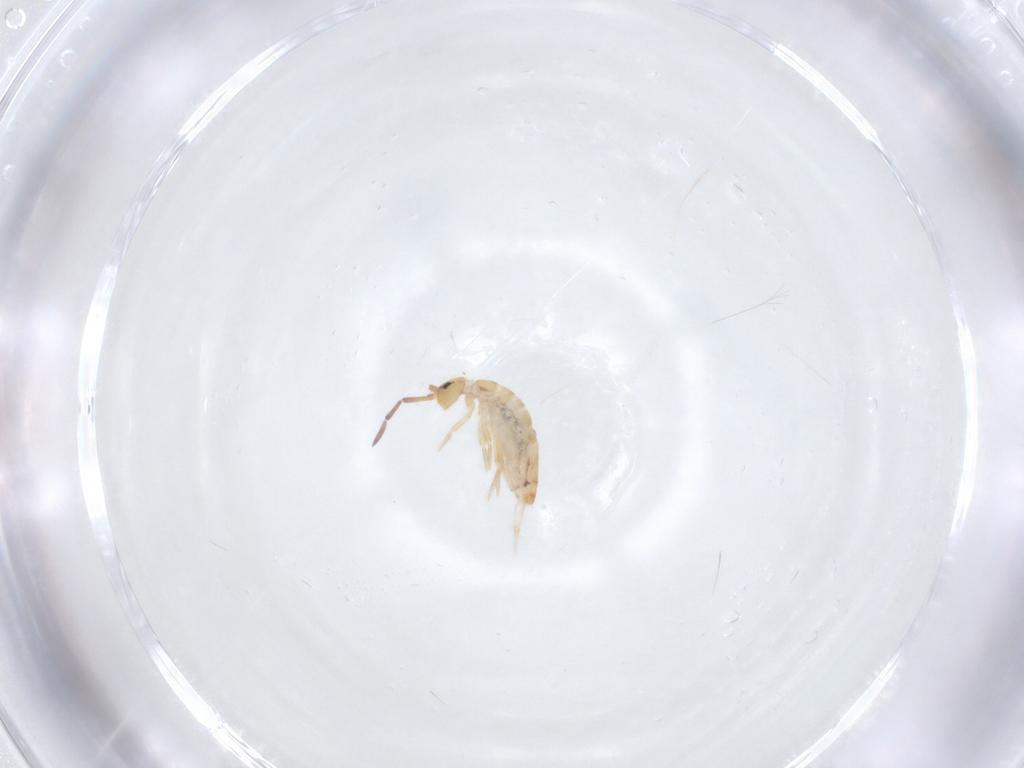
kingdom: Animalia
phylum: Arthropoda
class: Collembola
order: Entomobryomorpha
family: Entomobryidae
